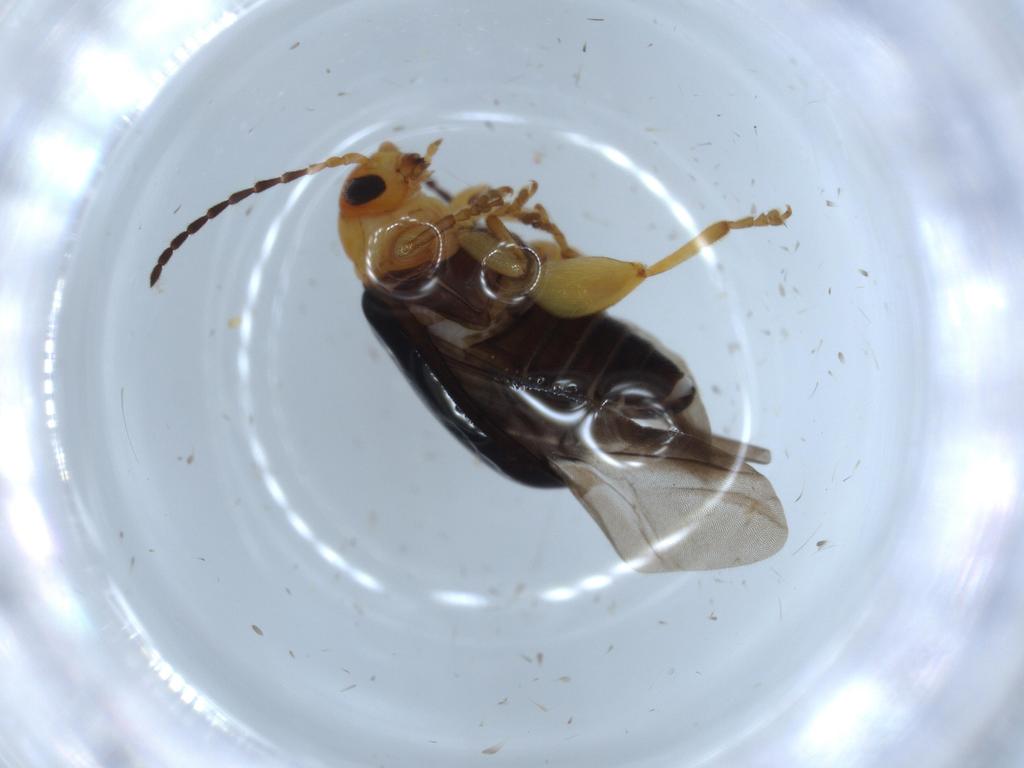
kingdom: Animalia
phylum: Arthropoda
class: Insecta
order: Coleoptera
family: Chrysomelidae
